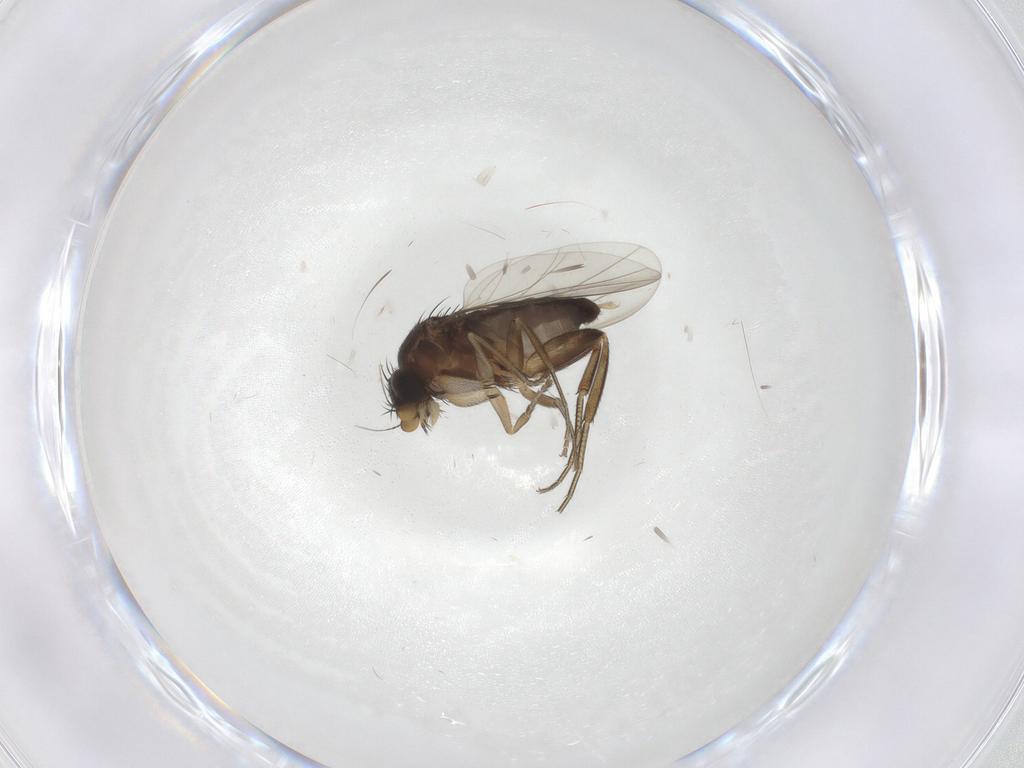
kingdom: Animalia
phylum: Arthropoda
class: Insecta
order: Diptera
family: Phoridae
